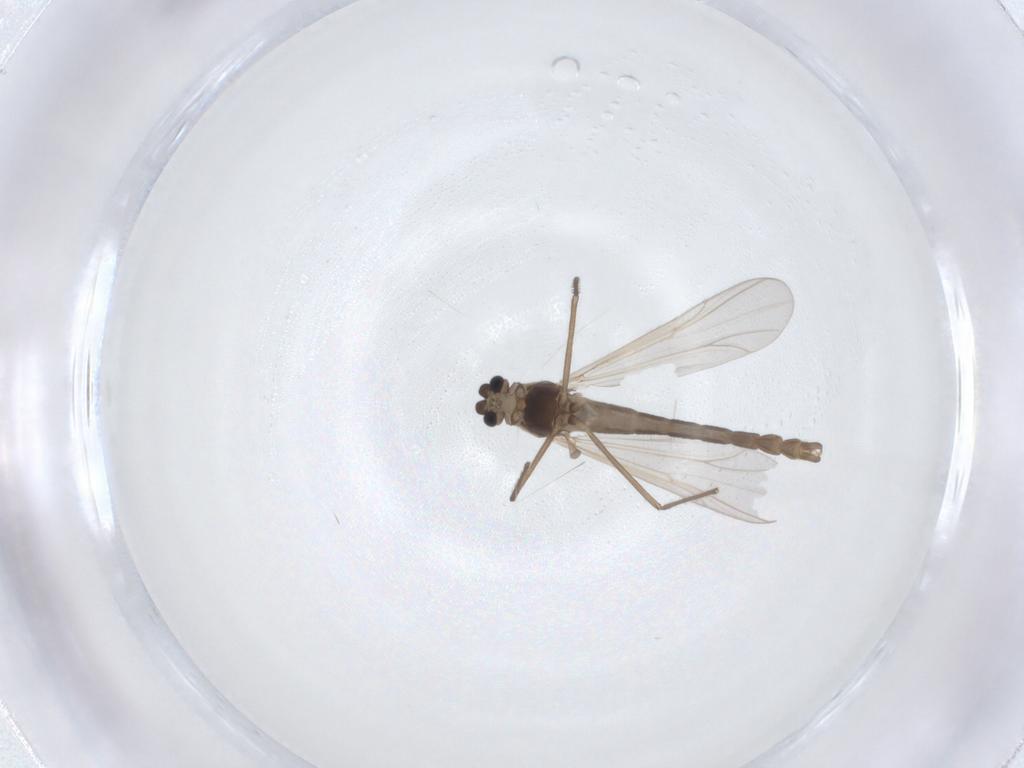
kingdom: Animalia
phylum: Arthropoda
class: Insecta
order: Diptera
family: Chironomidae
